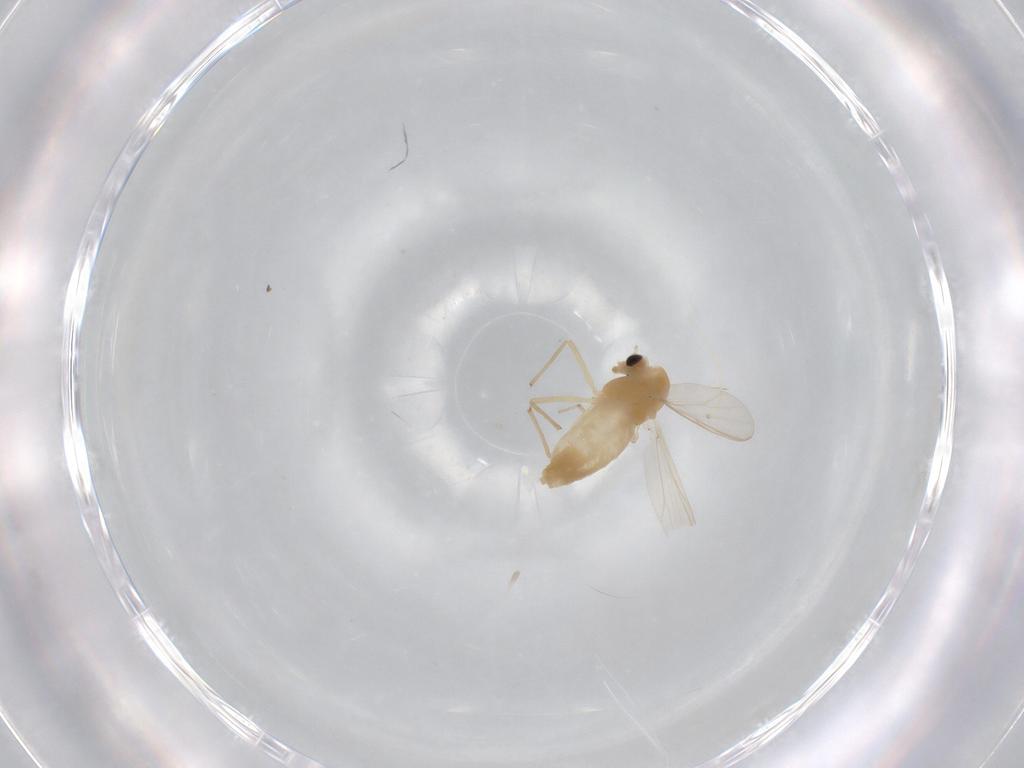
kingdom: Animalia
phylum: Arthropoda
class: Insecta
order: Diptera
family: Chironomidae
